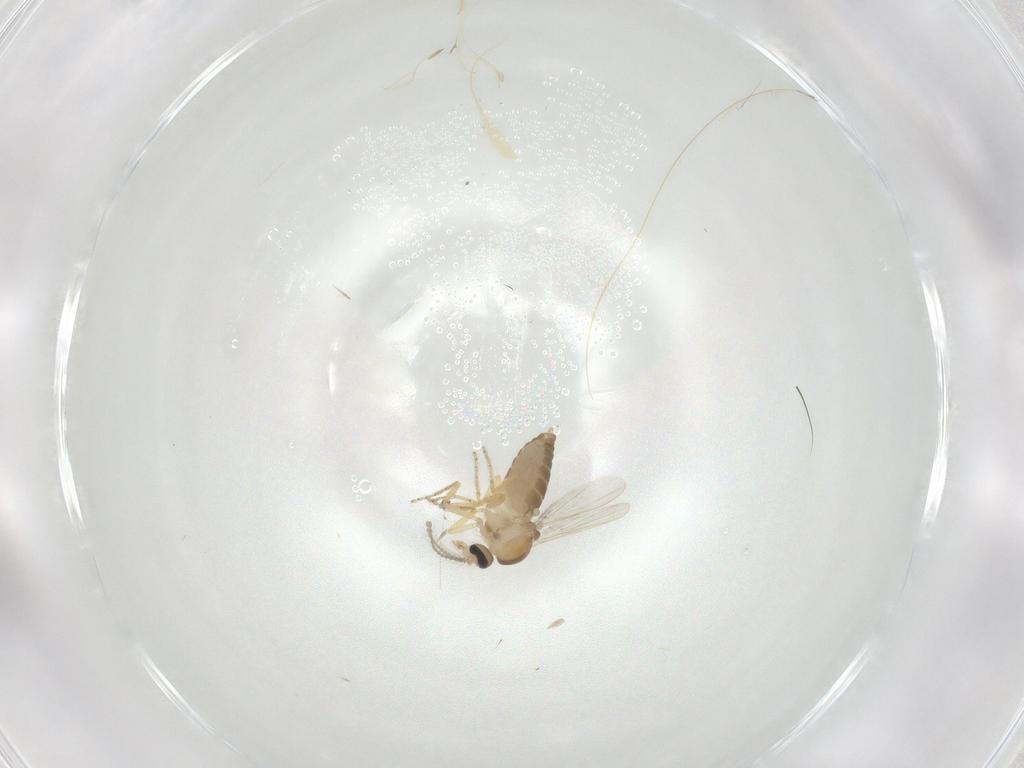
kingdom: Animalia
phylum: Arthropoda
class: Insecta
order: Diptera
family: Ceratopogonidae
